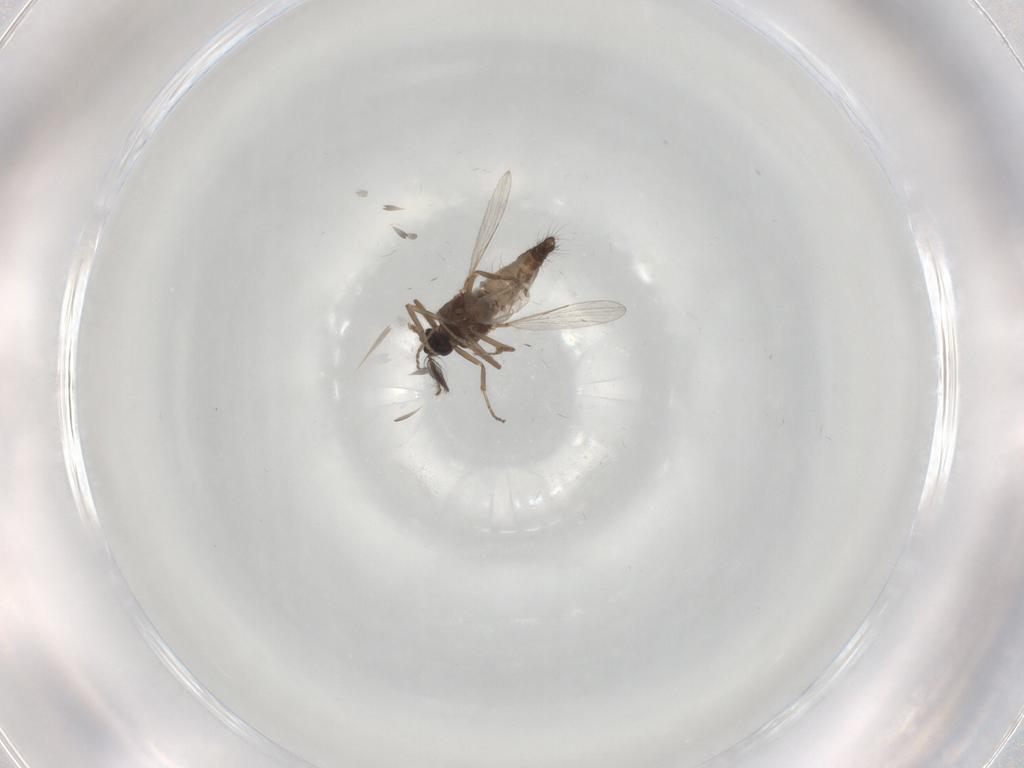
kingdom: Animalia
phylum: Arthropoda
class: Insecta
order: Diptera
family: Ceratopogonidae
